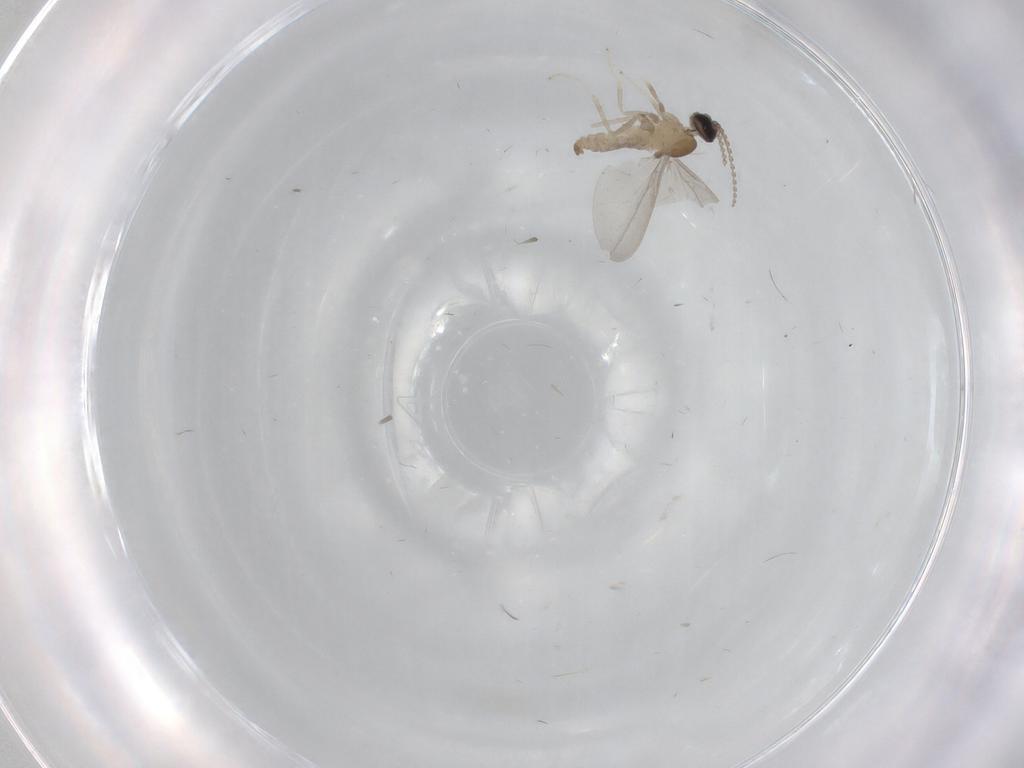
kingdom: Animalia
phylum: Arthropoda
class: Insecta
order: Diptera
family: Cecidomyiidae
